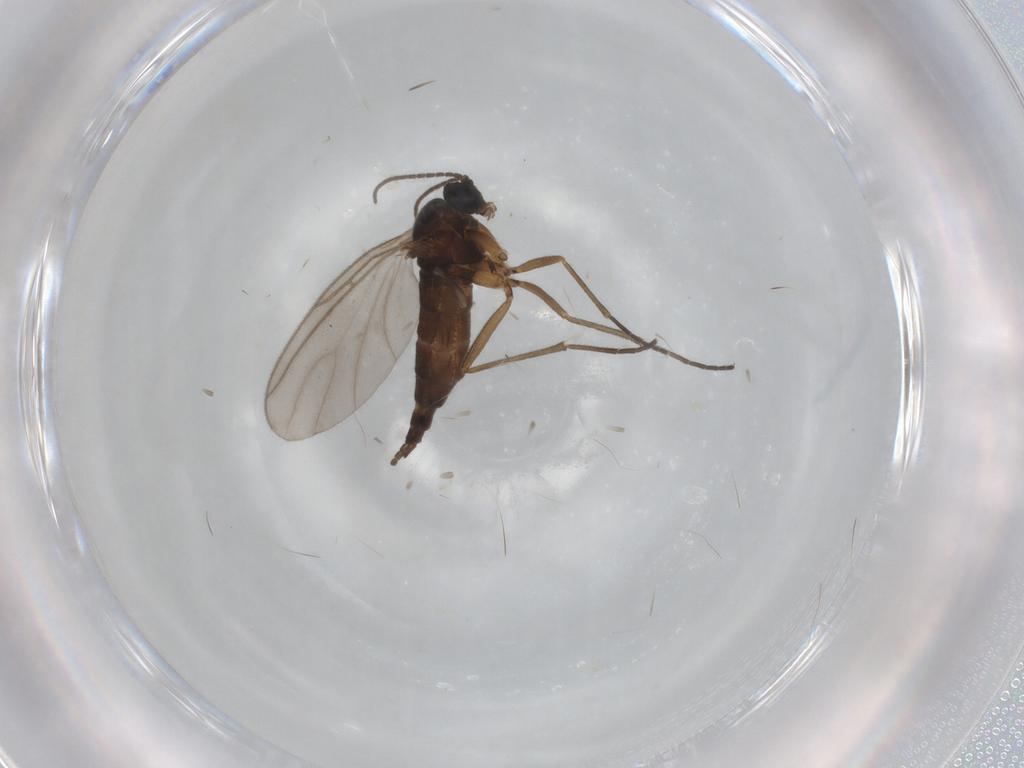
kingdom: Animalia
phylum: Arthropoda
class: Insecta
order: Diptera
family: Sciaridae
